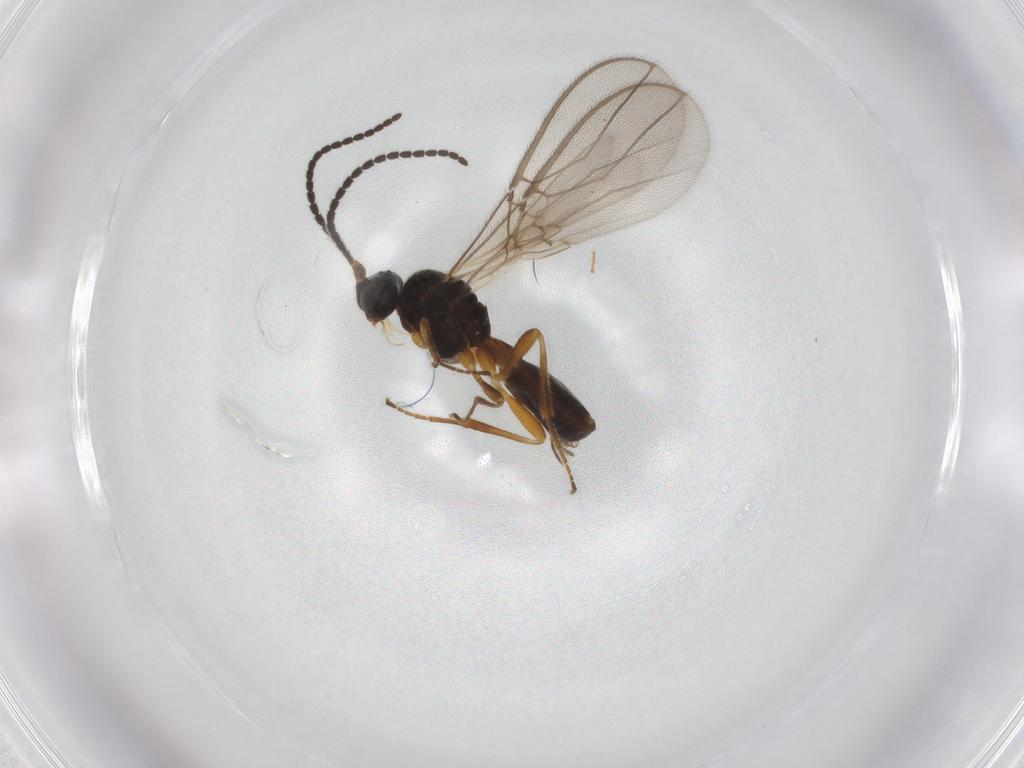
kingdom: Animalia
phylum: Arthropoda
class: Insecta
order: Hymenoptera
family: Braconidae
